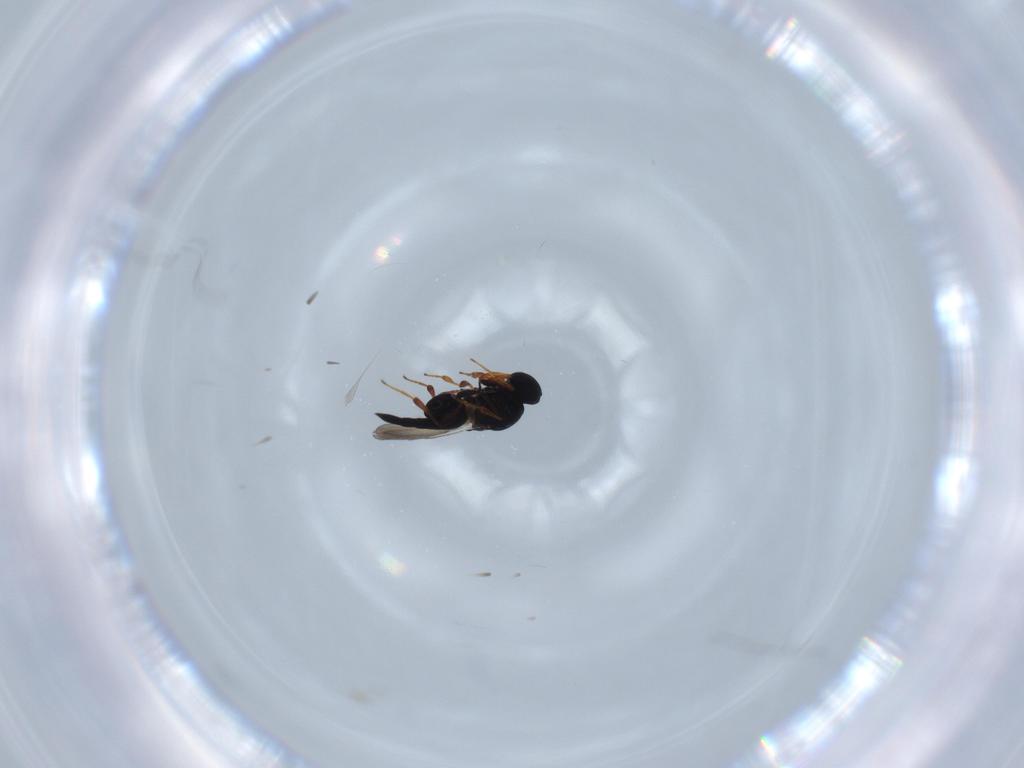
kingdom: Animalia
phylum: Arthropoda
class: Insecta
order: Hymenoptera
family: Platygastridae
